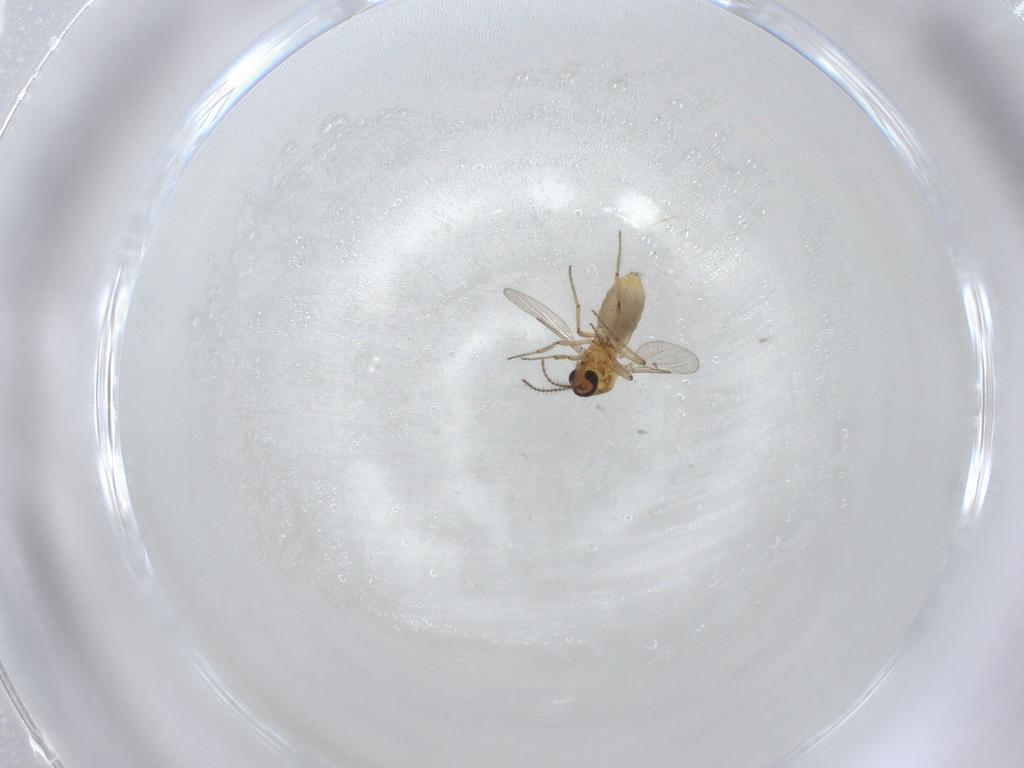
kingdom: Animalia
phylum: Arthropoda
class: Insecta
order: Diptera
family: Ceratopogonidae
